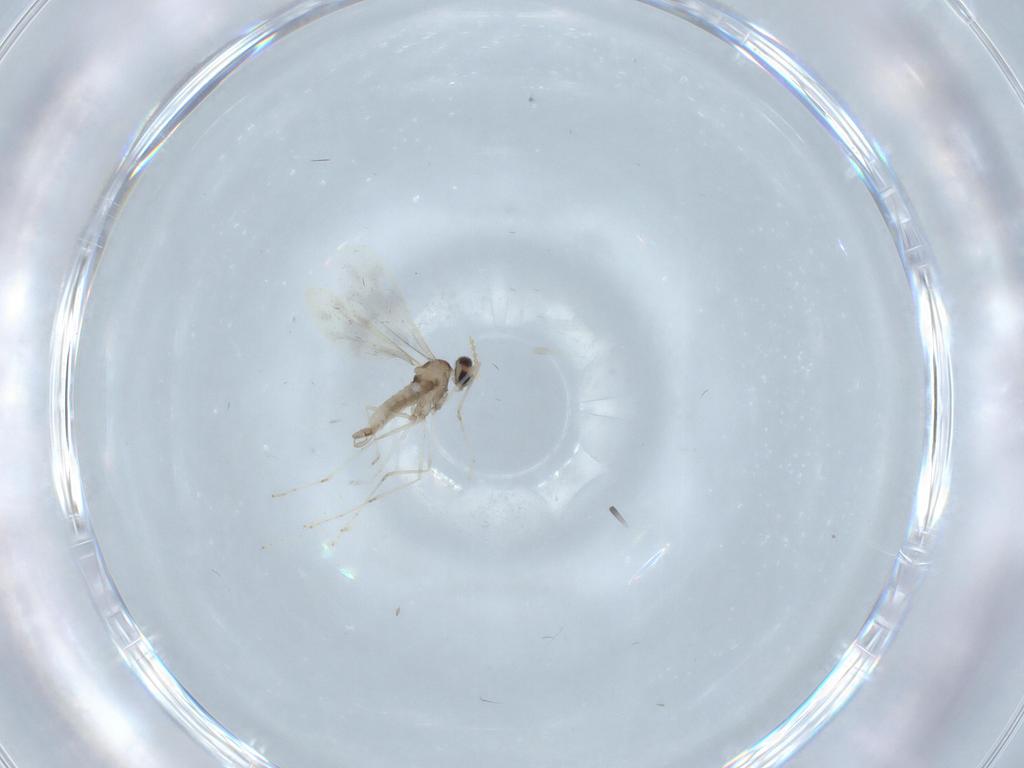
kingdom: Animalia
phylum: Arthropoda
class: Insecta
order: Diptera
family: Cecidomyiidae
